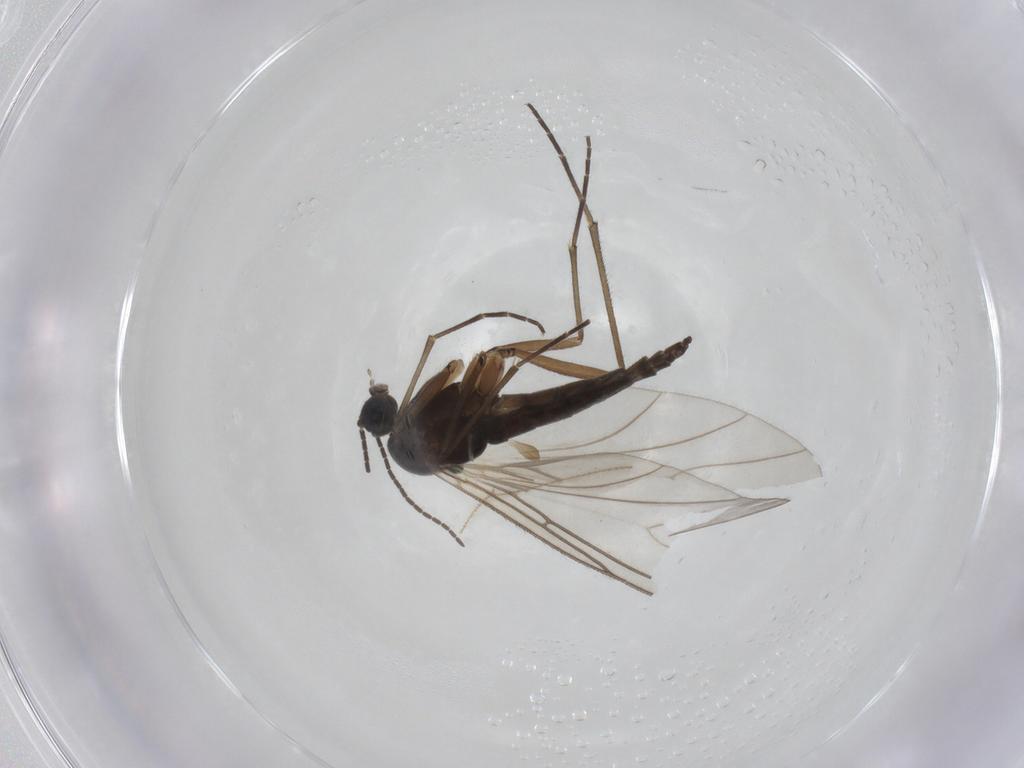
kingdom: Animalia
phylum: Arthropoda
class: Insecta
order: Diptera
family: Sciaridae
